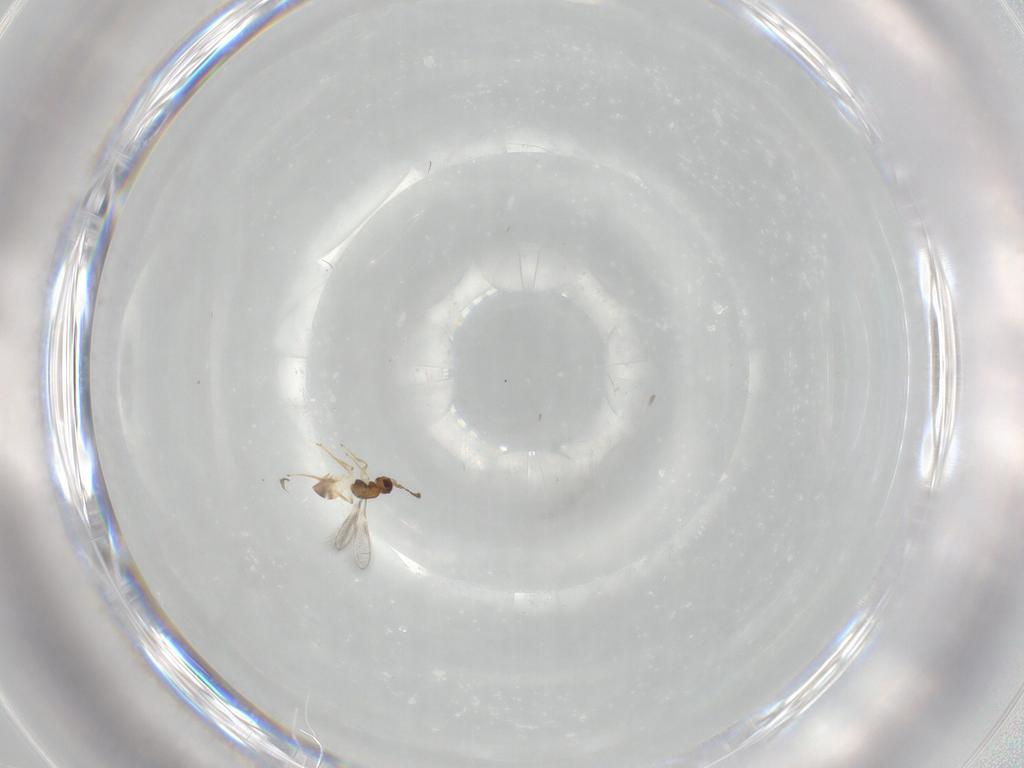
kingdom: Animalia
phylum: Arthropoda
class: Insecta
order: Hymenoptera
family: Mymaridae
